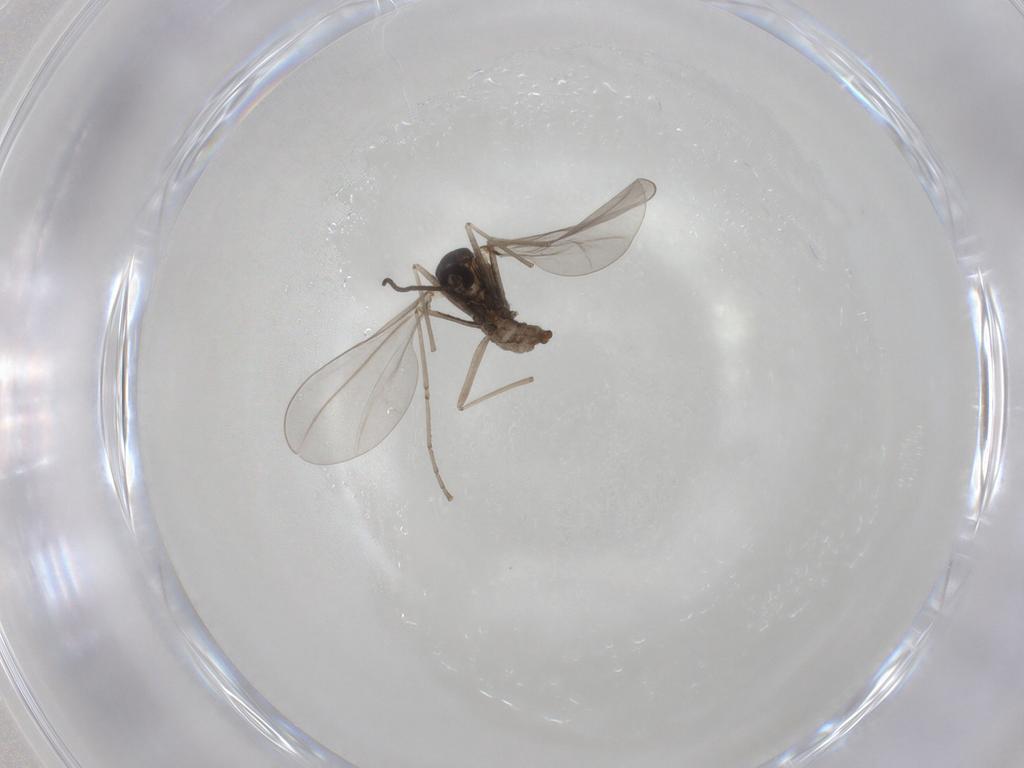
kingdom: Animalia
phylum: Arthropoda
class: Insecta
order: Diptera
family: Cecidomyiidae
